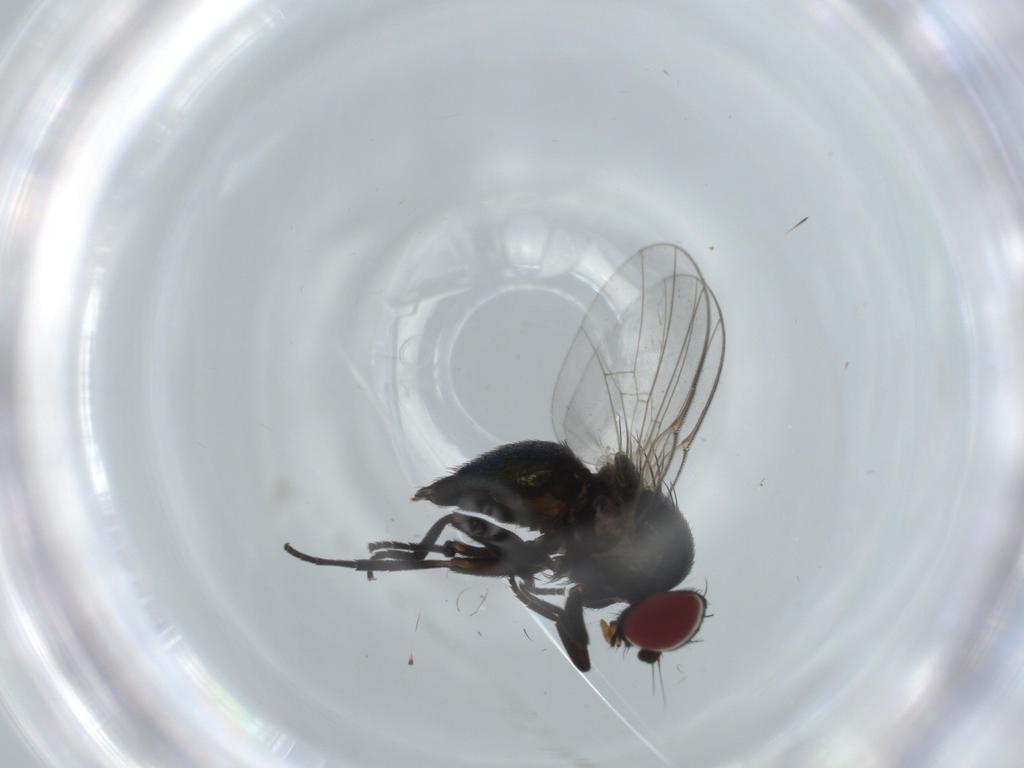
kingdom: Animalia
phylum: Arthropoda
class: Insecta
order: Diptera
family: Agromyzidae
